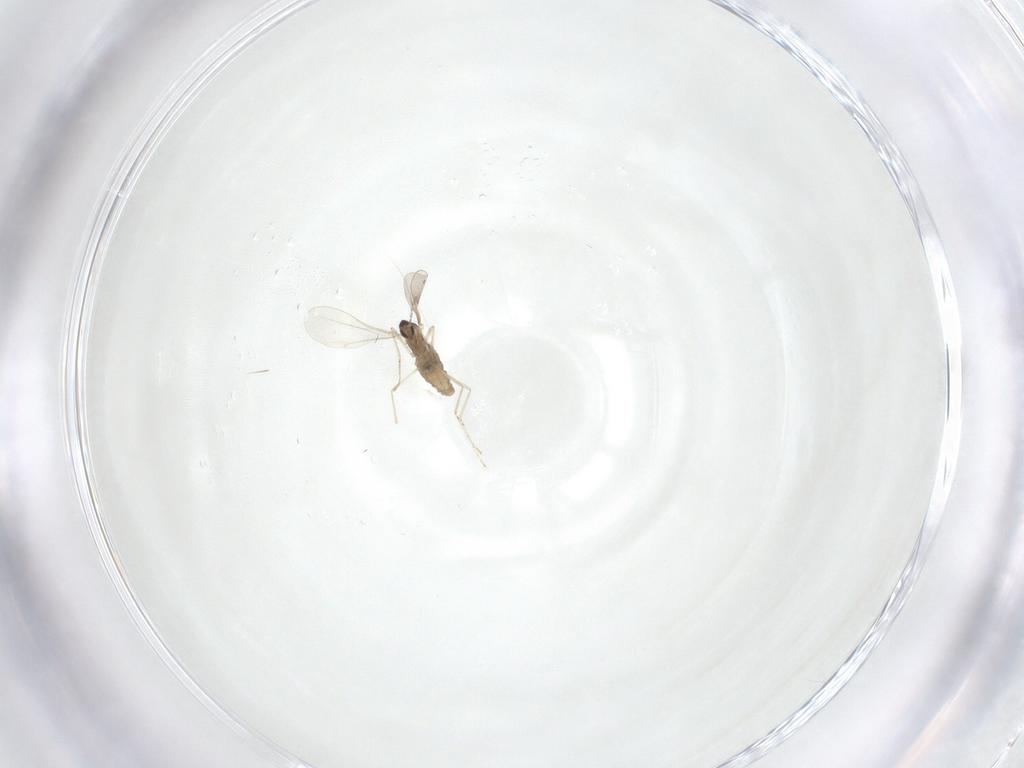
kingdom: Animalia
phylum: Arthropoda
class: Insecta
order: Diptera
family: Cecidomyiidae
